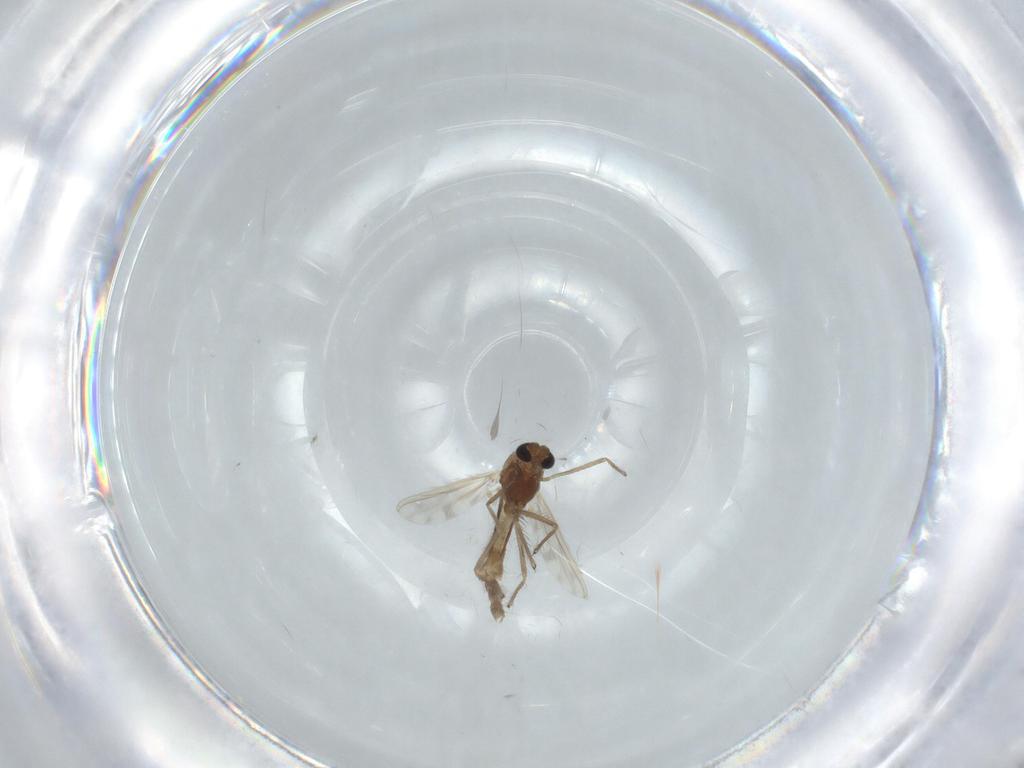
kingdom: Animalia
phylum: Arthropoda
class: Insecta
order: Diptera
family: Chironomidae
